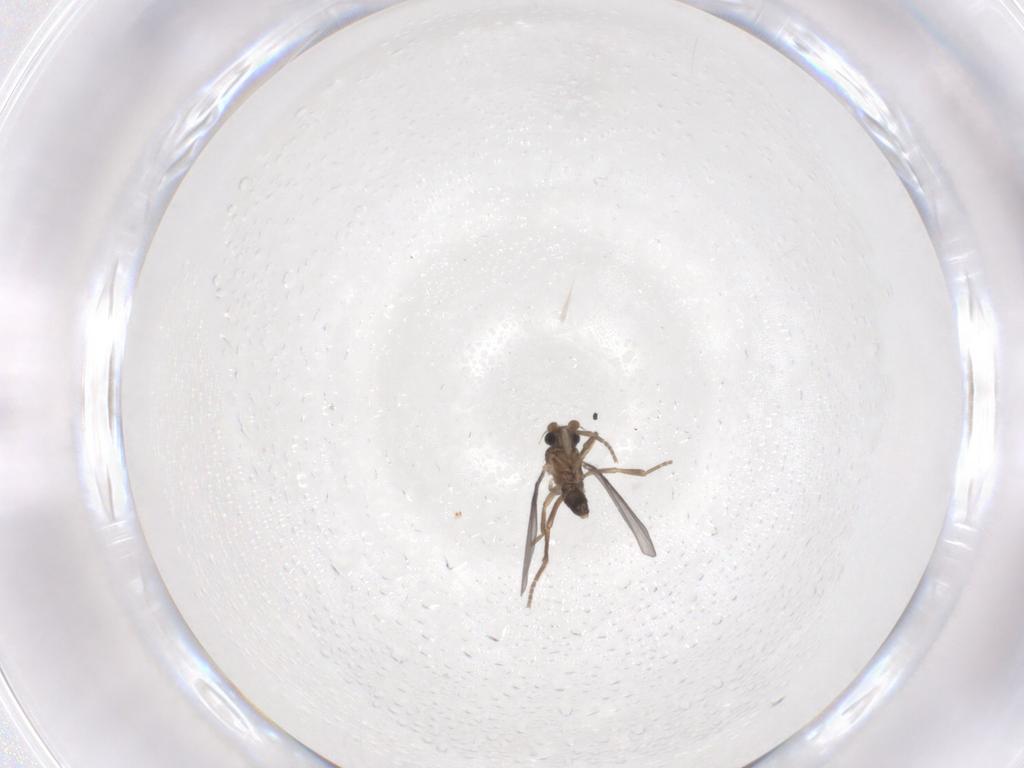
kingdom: Animalia
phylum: Arthropoda
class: Insecta
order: Diptera
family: Phoridae
